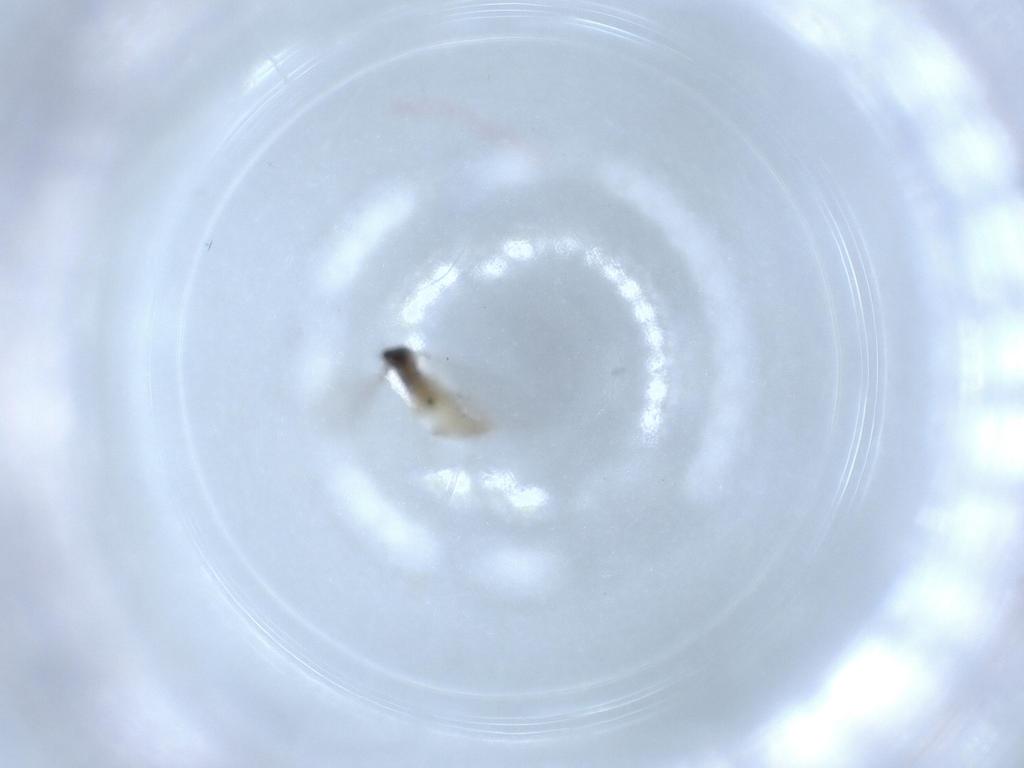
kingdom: Animalia
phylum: Arthropoda
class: Insecta
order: Diptera
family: Cecidomyiidae
